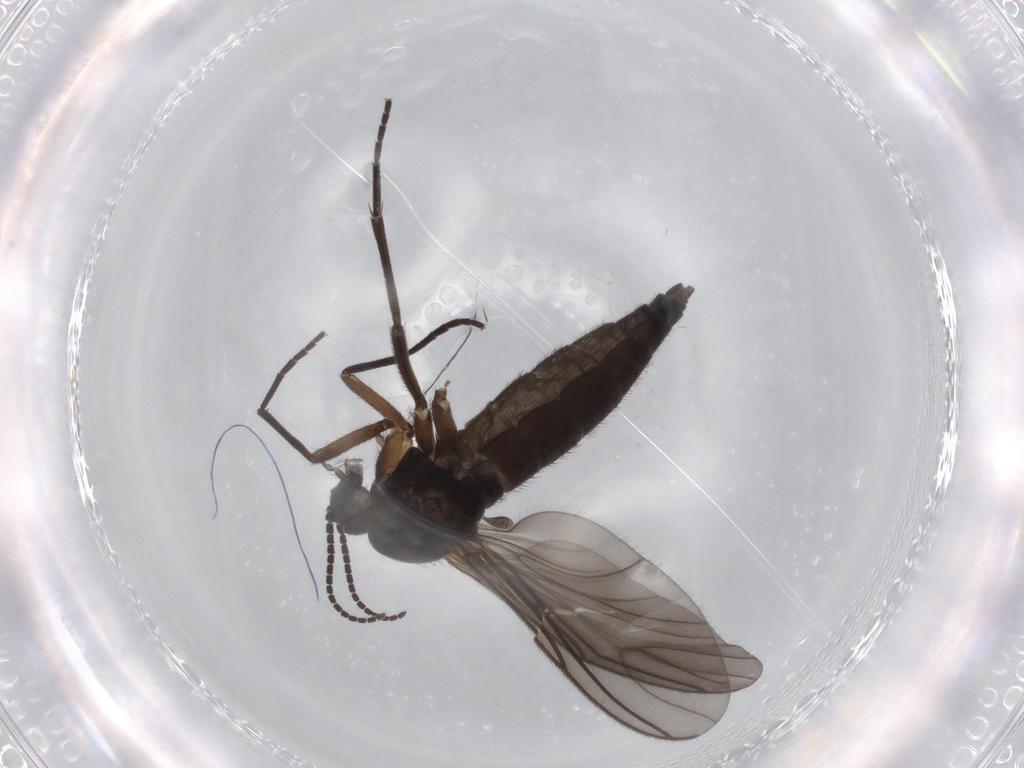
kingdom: Animalia
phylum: Arthropoda
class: Insecta
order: Diptera
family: Sciaridae
